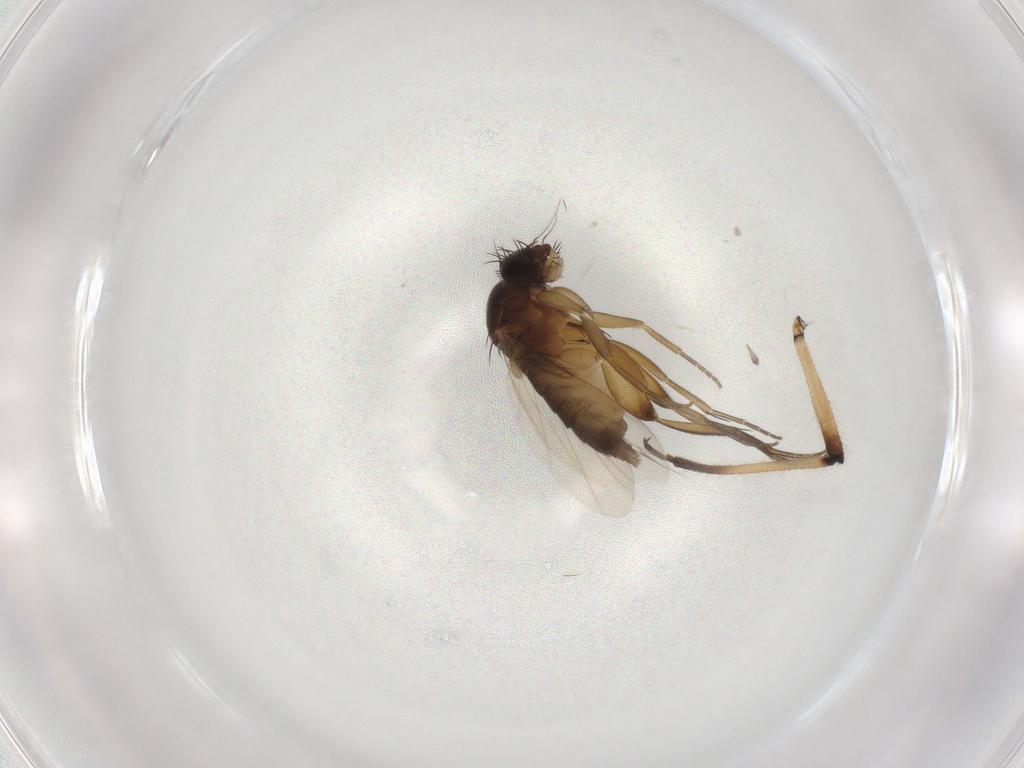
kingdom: Animalia
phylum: Arthropoda
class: Insecta
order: Diptera
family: Phoridae
